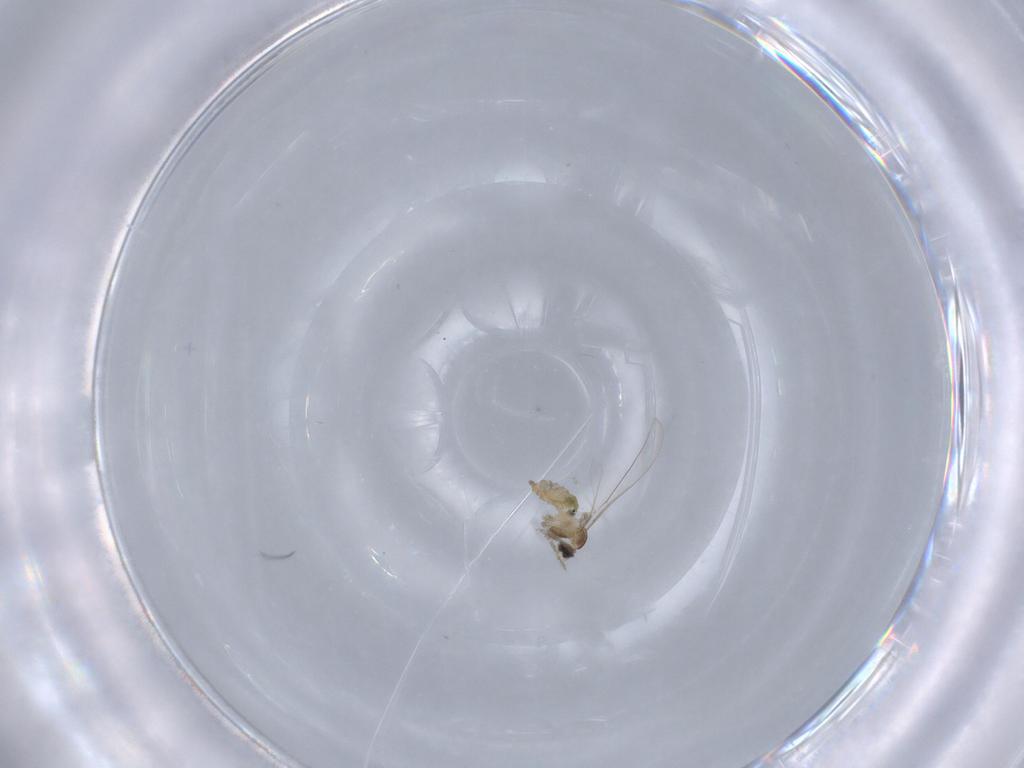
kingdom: Animalia
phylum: Arthropoda
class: Insecta
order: Diptera
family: Cecidomyiidae
